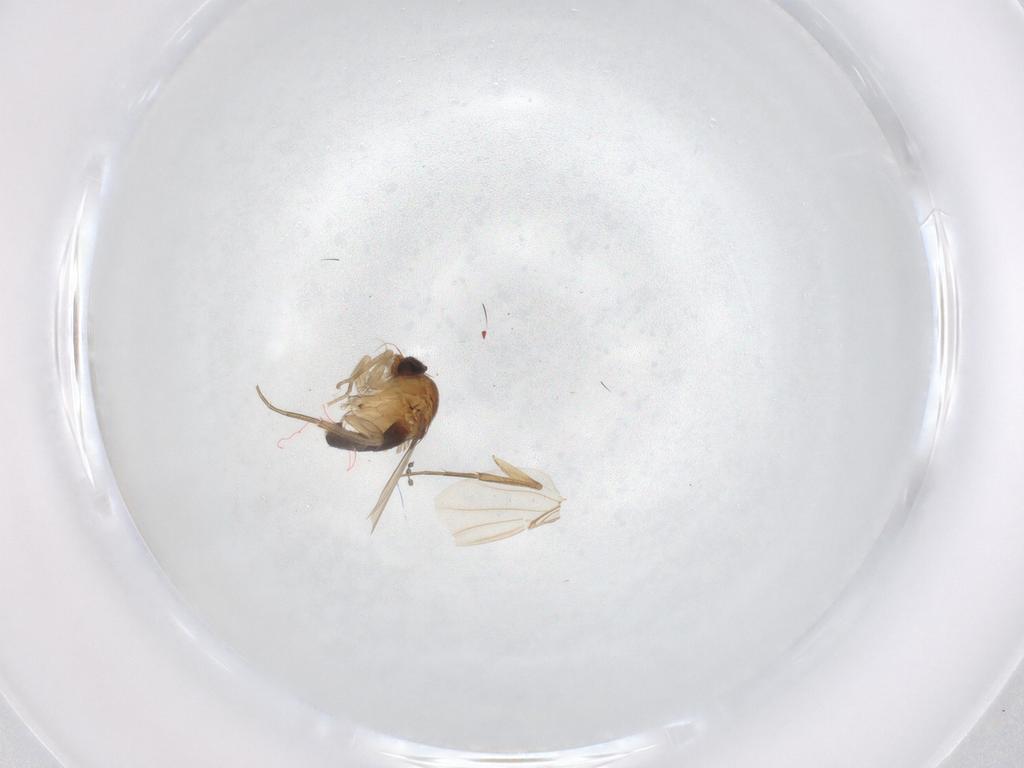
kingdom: Animalia
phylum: Arthropoda
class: Insecta
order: Diptera
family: Phoridae
